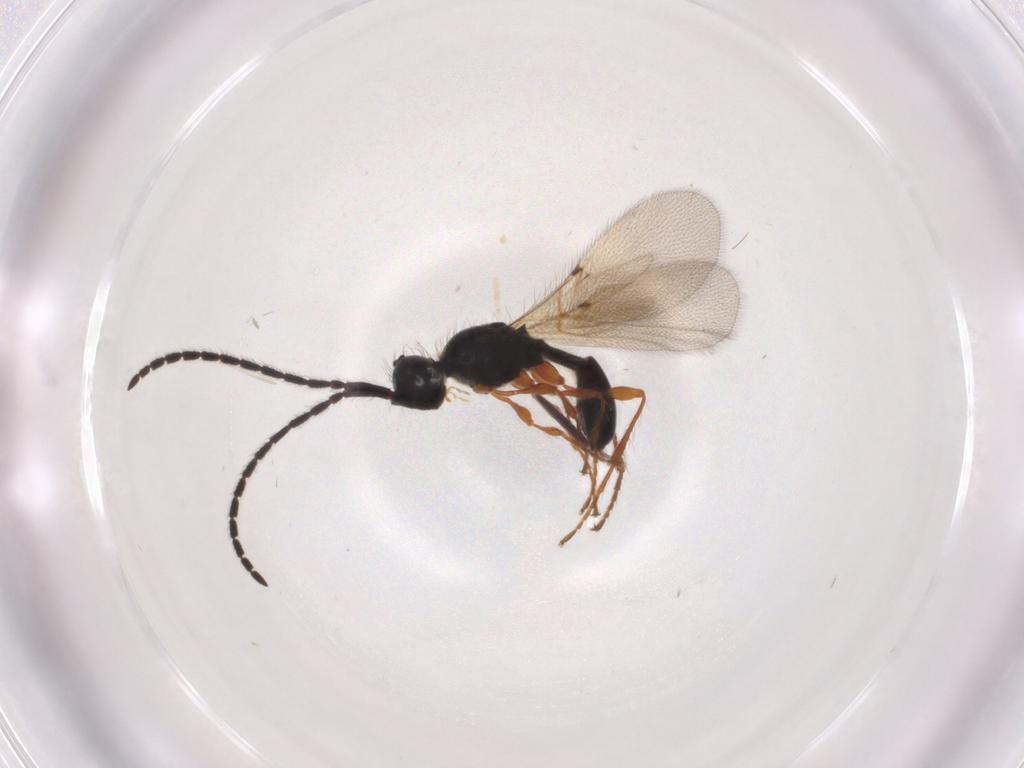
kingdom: Animalia
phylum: Arthropoda
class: Insecta
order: Hymenoptera
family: Diapriidae
